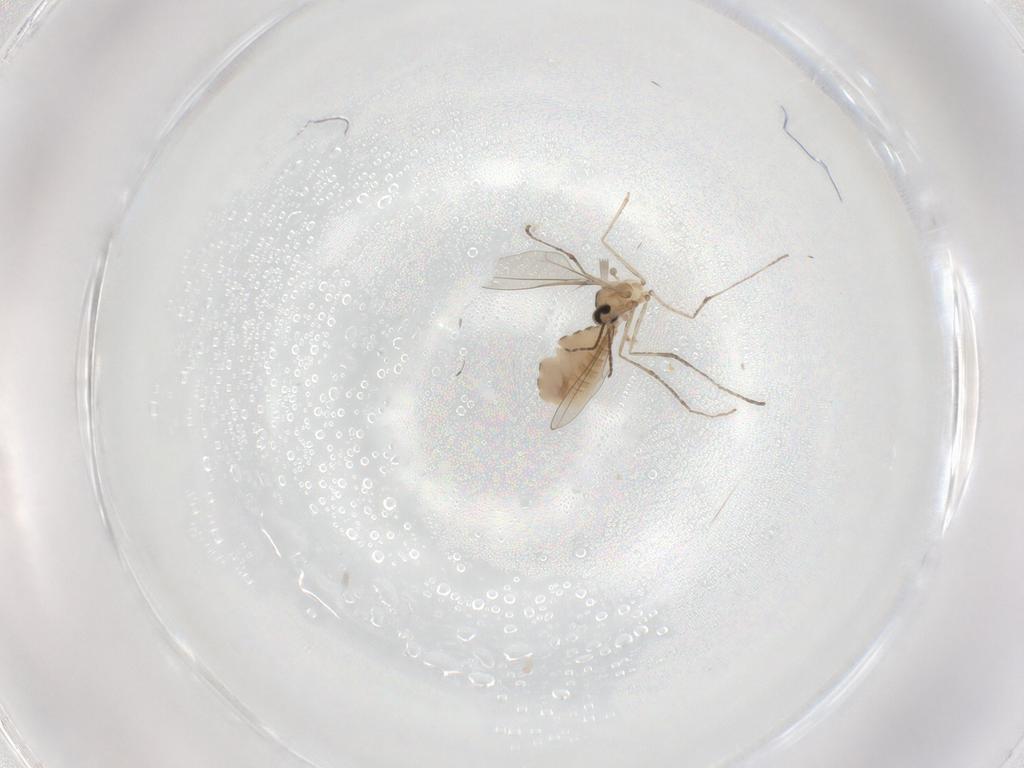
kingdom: Animalia
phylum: Arthropoda
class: Insecta
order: Diptera
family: Cecidomyiidae
